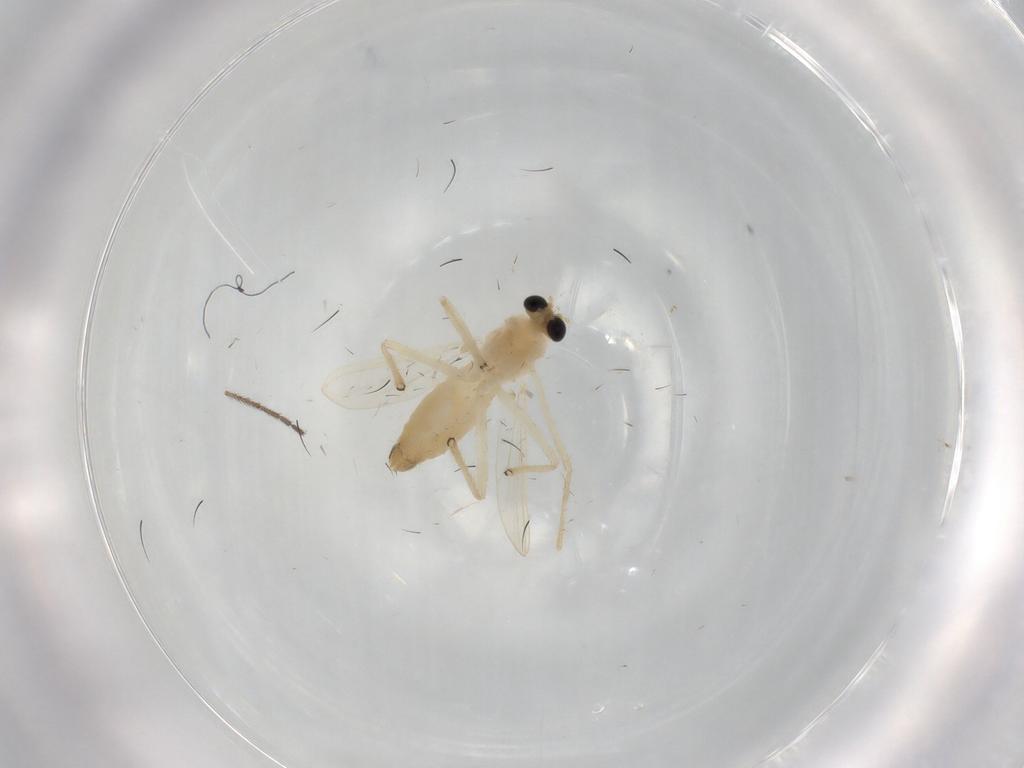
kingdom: Animalia
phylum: Arthropoda
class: Insecta
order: Diptera
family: Chironomidae
